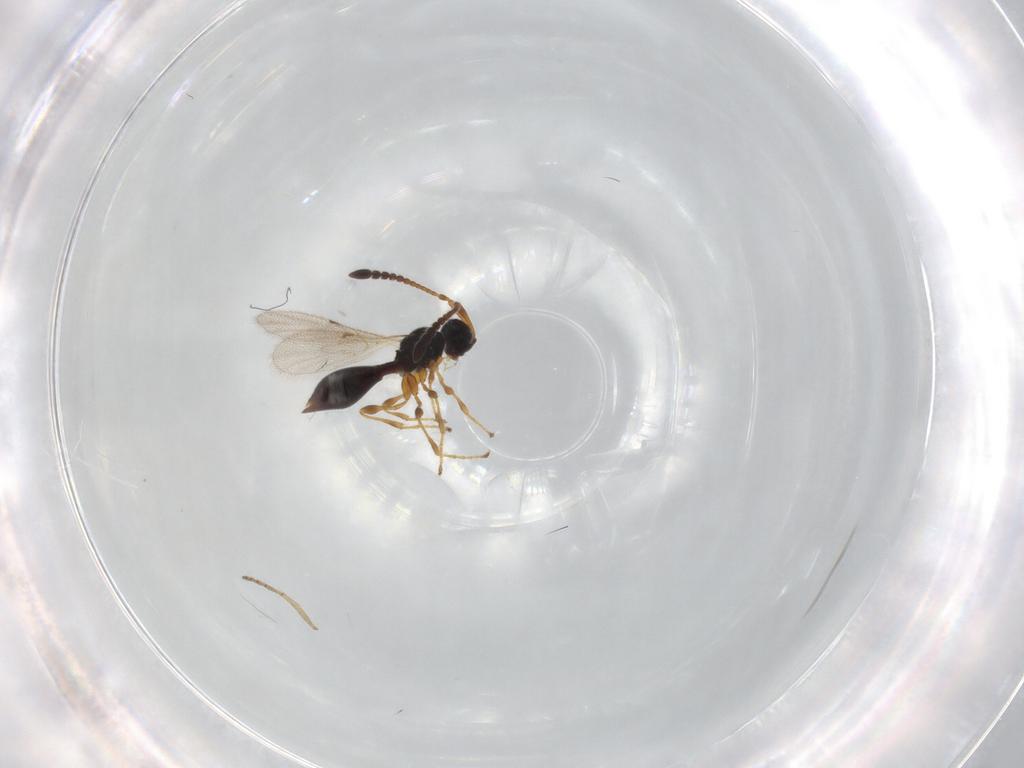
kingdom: Animalia
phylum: Arthropoda
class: Insecta
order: Hymenoptera
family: Diapriidae
